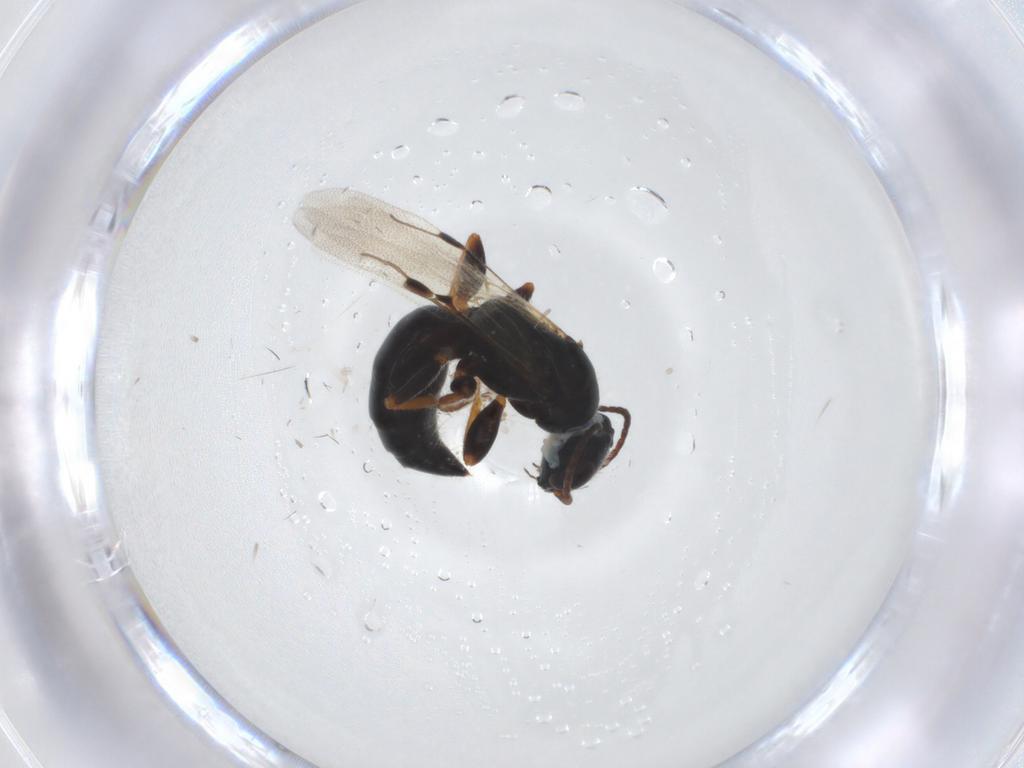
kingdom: Animalia
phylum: Arthropoda
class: Insecta
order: Hymenoptera
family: Bethylidae
